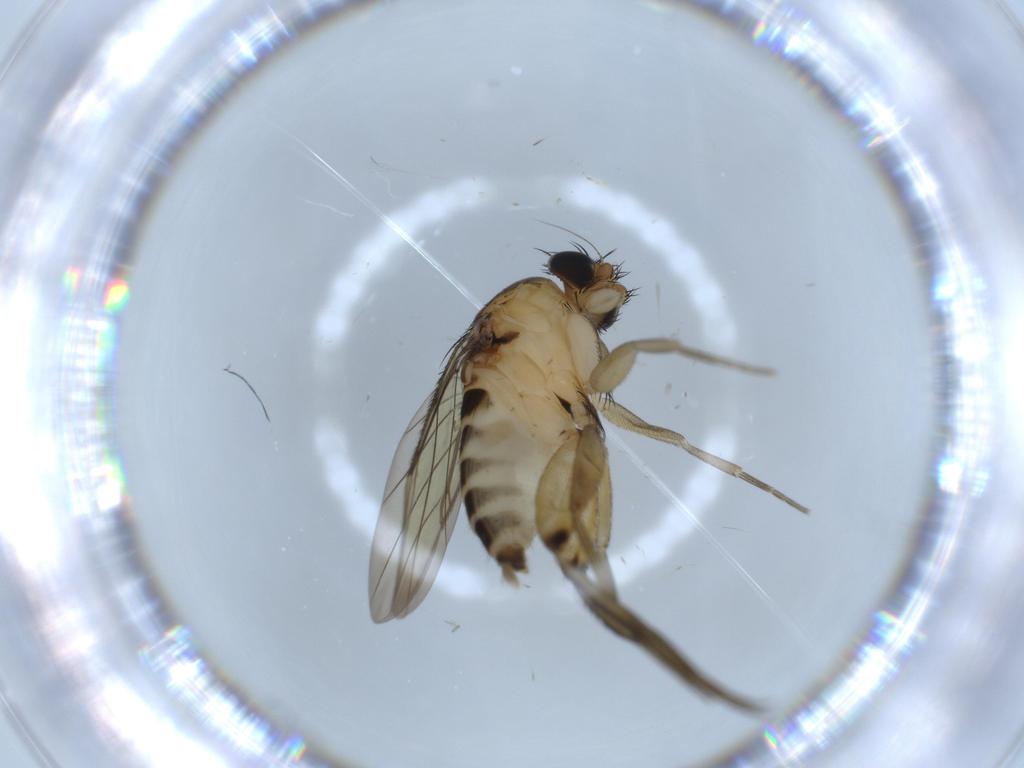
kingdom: Animalia
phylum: Arthropoda
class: Insecta
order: Diptera
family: Phoridae
